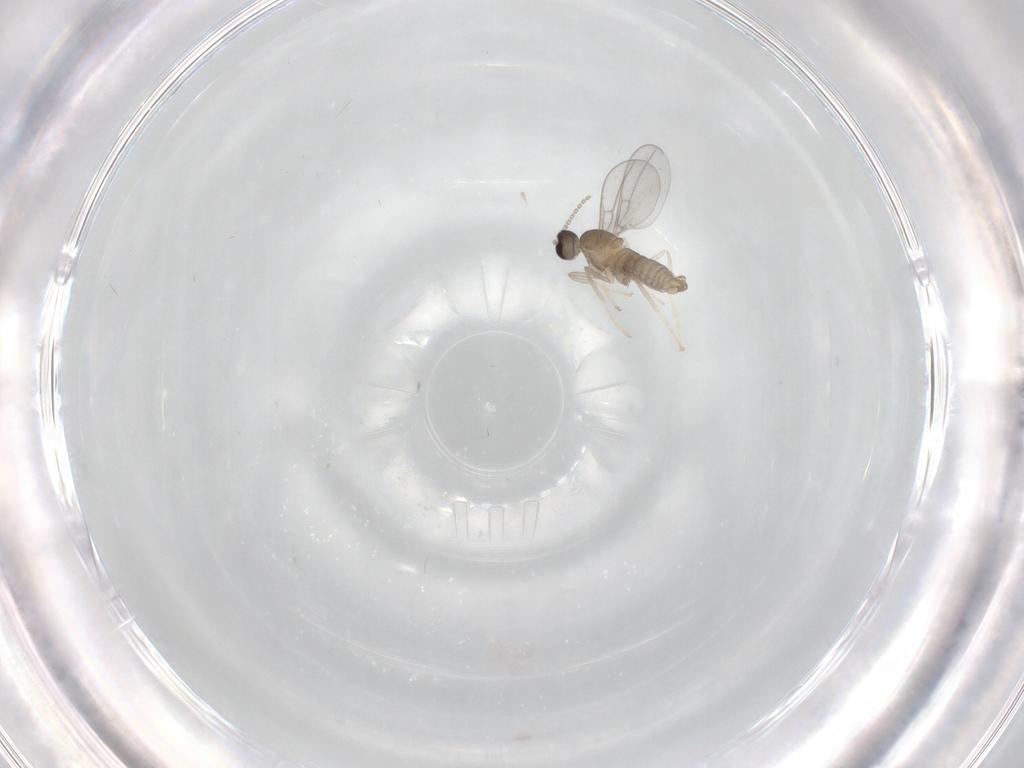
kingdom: Animalia
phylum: Arthropoda
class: Insecta
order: Diptera
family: Cecidomyiidae
